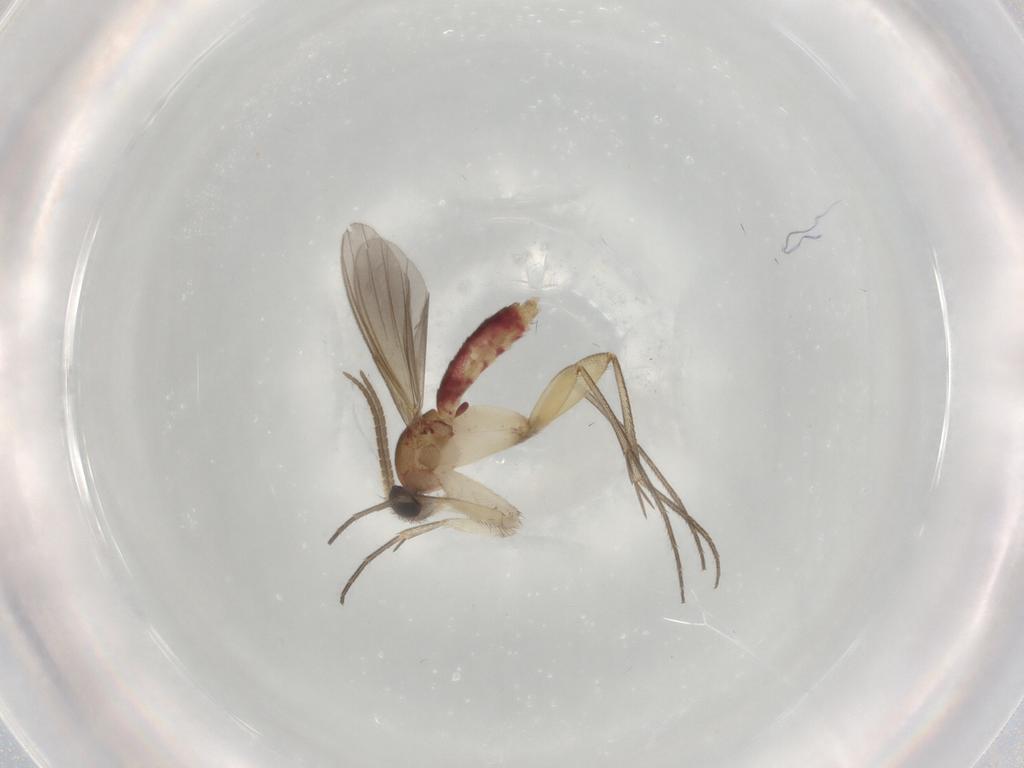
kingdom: Animalia
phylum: Arthropoda
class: Insecta
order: Diptera
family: Mycetophilidae
